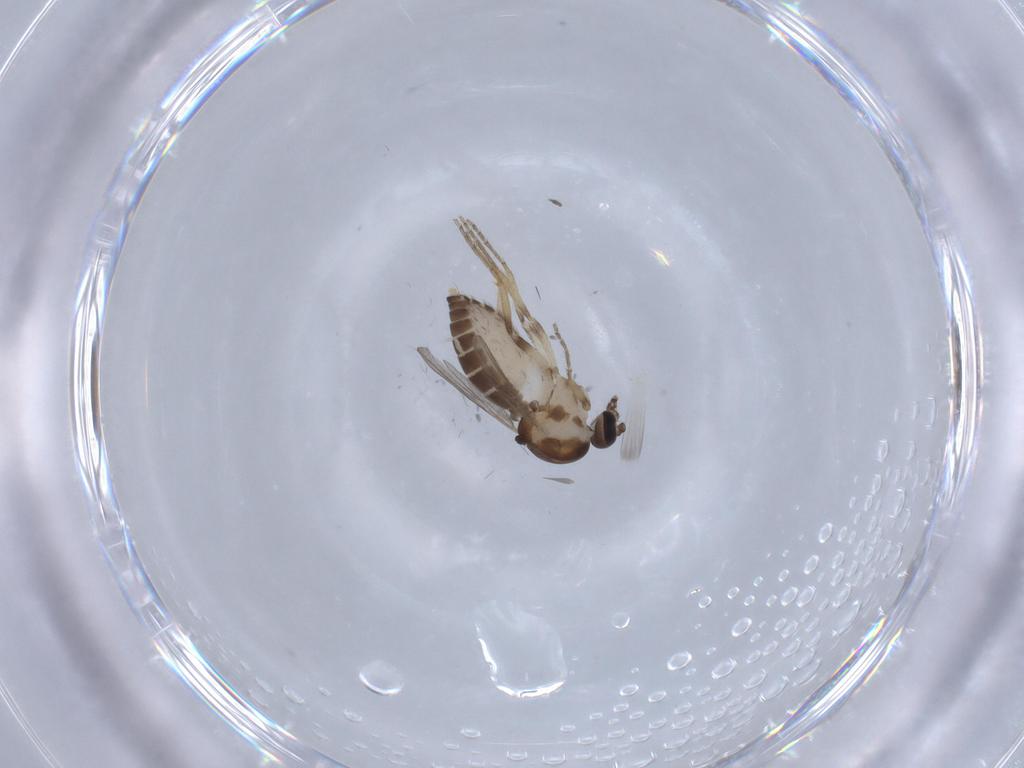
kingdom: Animalia
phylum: Arthropoda
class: Insecta
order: Diptera
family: Ceratopogonidae
